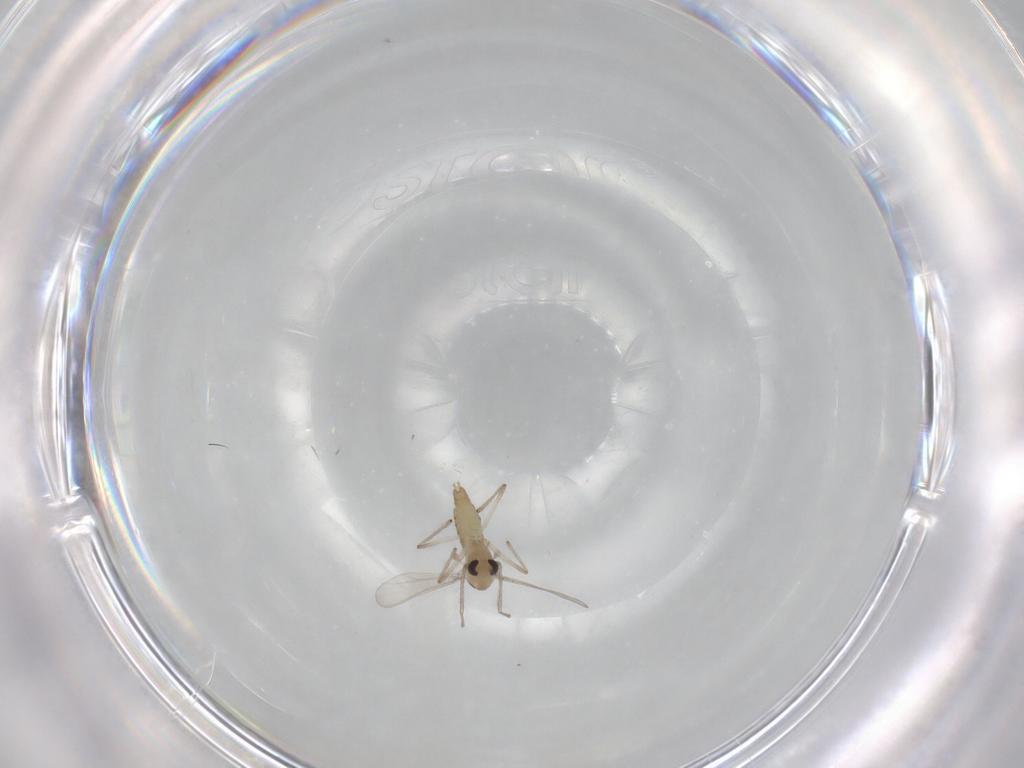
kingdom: Animalia
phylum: Arthropoda
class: Insecta
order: Diptera
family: Chironomidae
